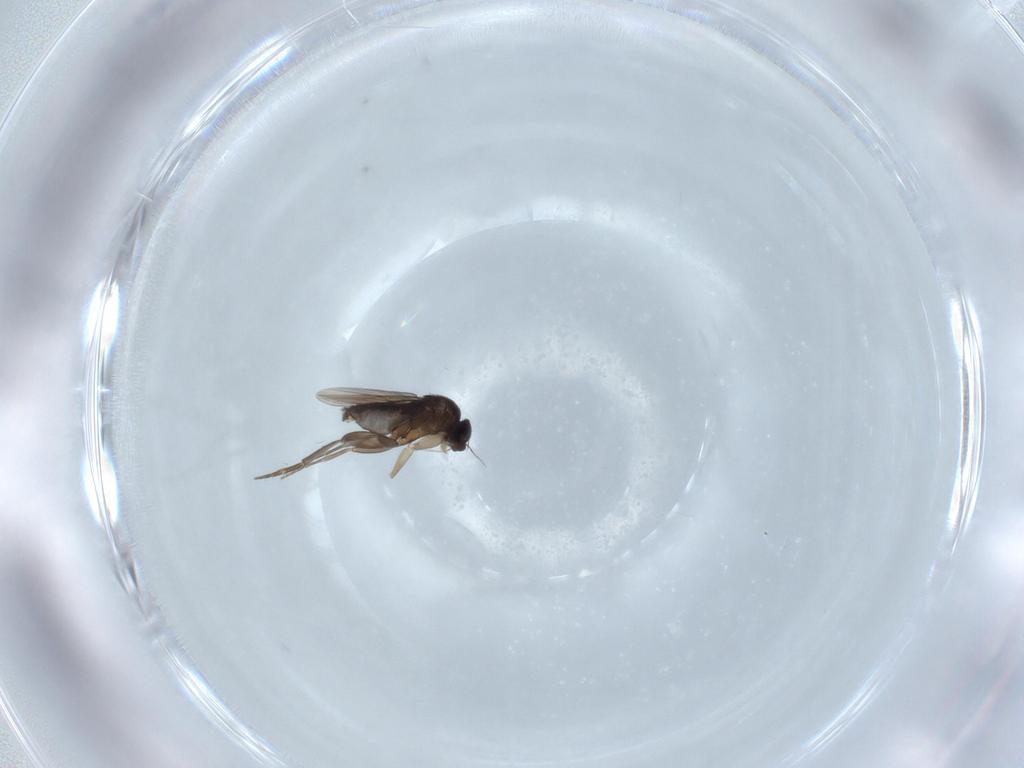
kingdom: Animalia
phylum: Arthropoda
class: Insecta
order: Diptera
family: Phoridae
